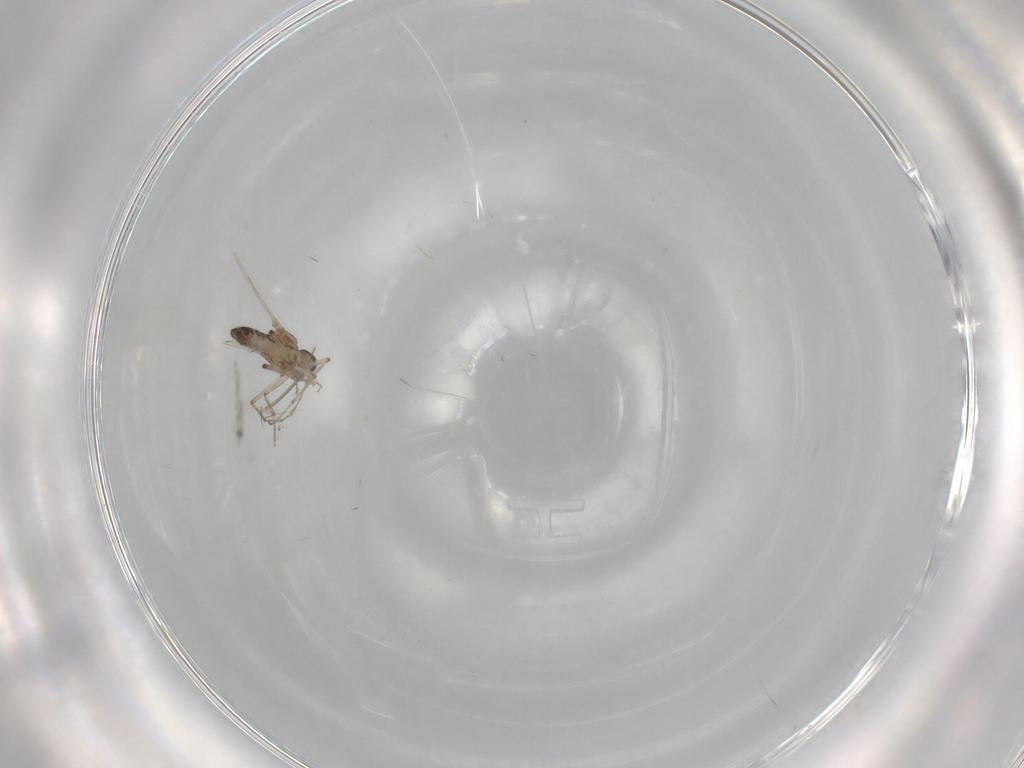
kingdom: Animalia
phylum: Arthropoda
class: Insecta
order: Diptera
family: Ceratopogonidae
